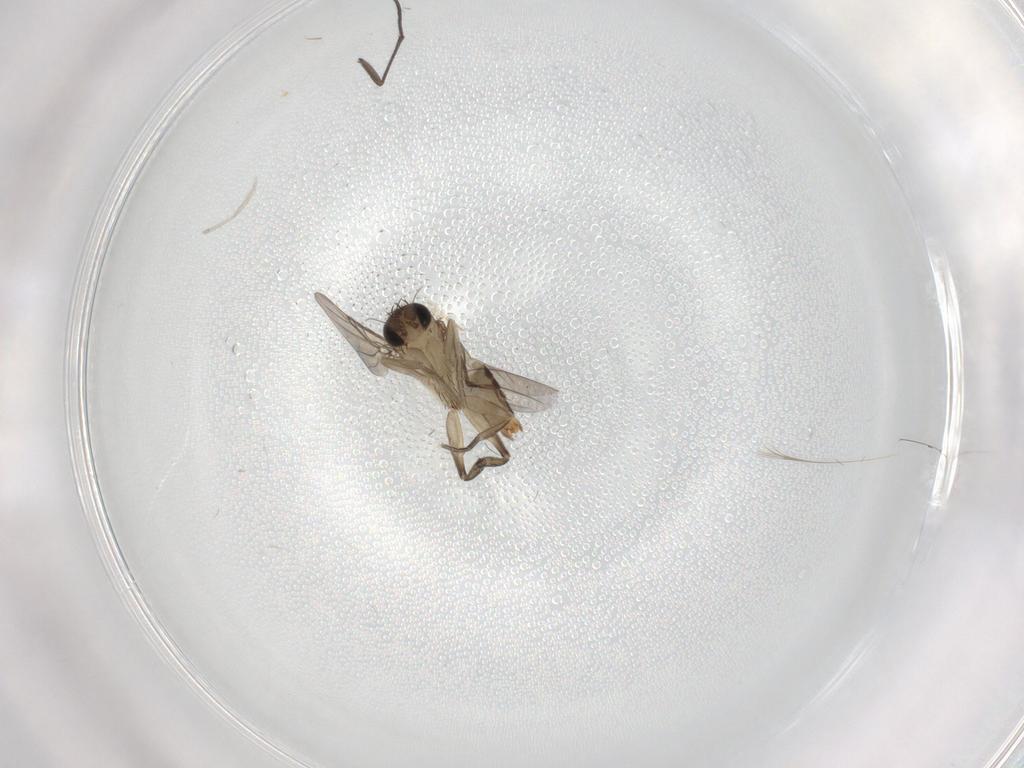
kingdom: Animalia
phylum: Arthropoda
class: Insecta
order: Diptera
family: Phoridae
